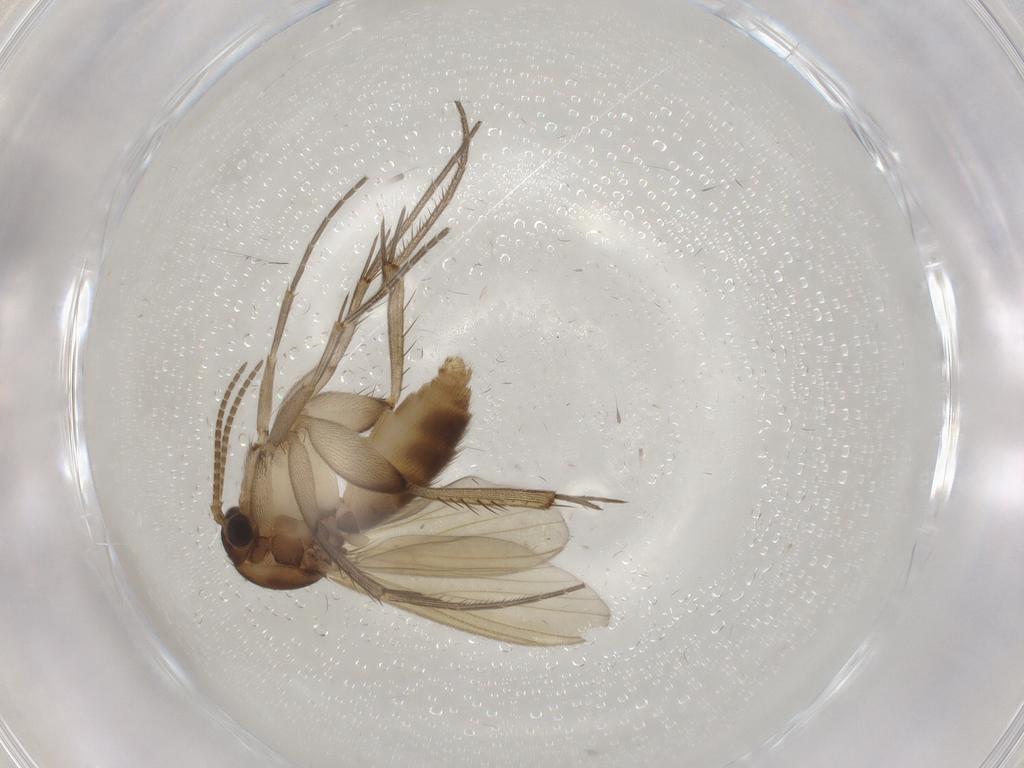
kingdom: Animalia
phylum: Arthropoda
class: Insecta
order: Diptera
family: Mycetophilidae
